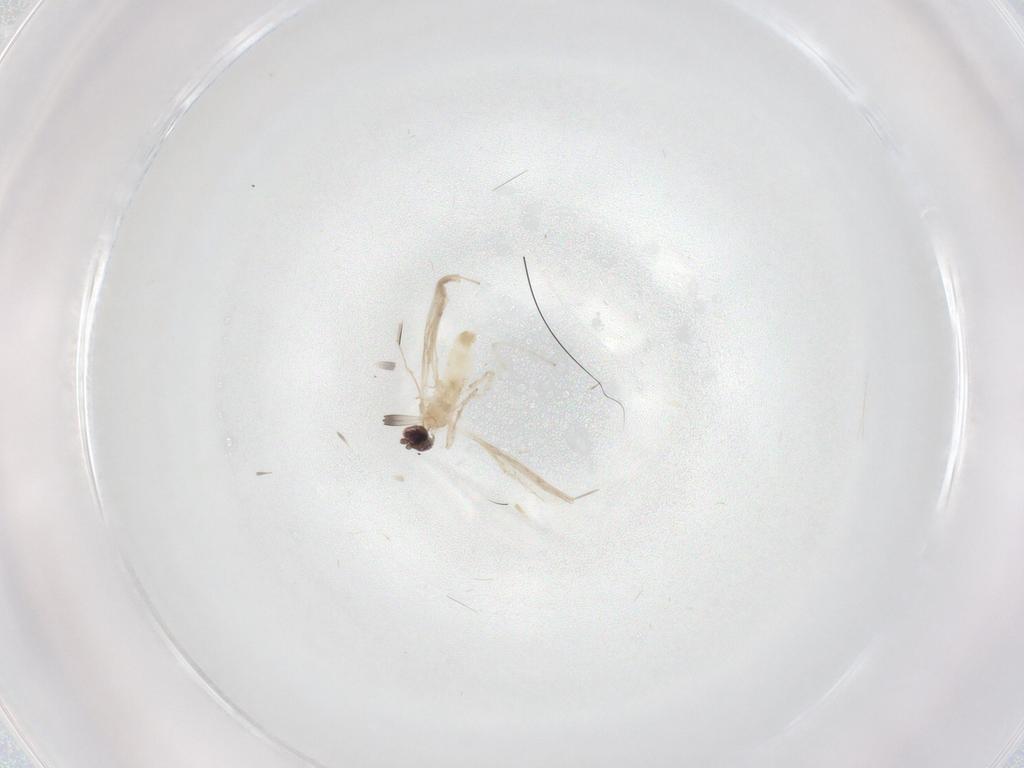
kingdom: Animalia
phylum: Arthropoda
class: Insecta
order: Diptera
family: Cecidomyiidae
